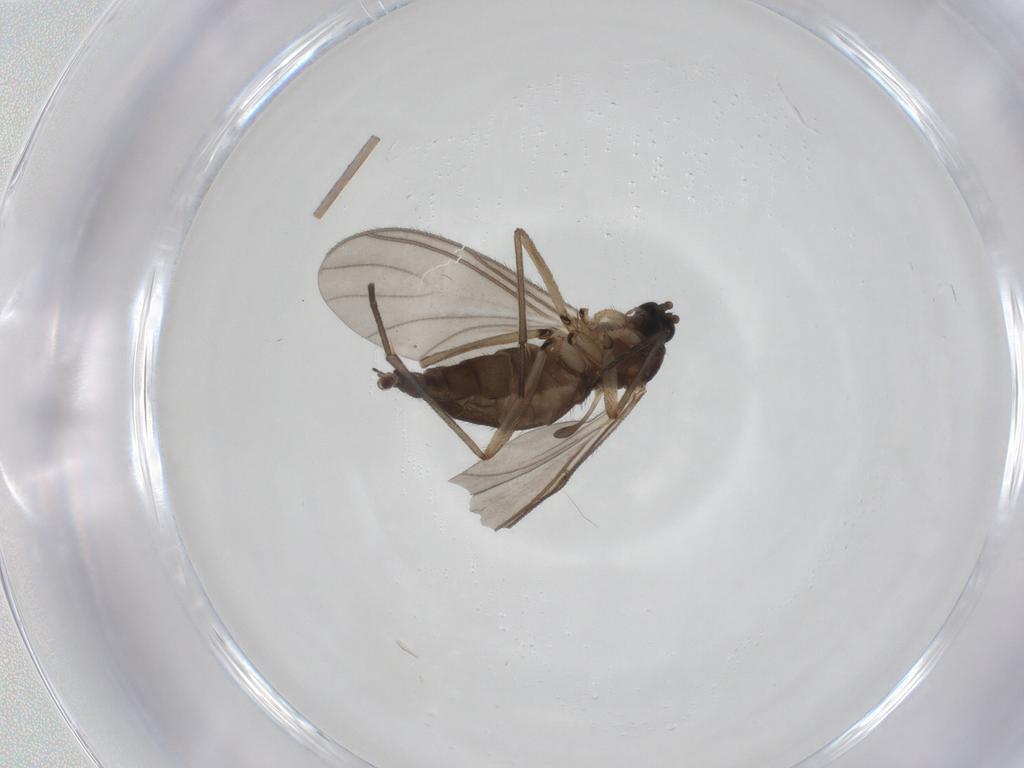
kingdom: Animalia
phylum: Arthropoda
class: Insecta
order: Diptera
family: Sciaridae
